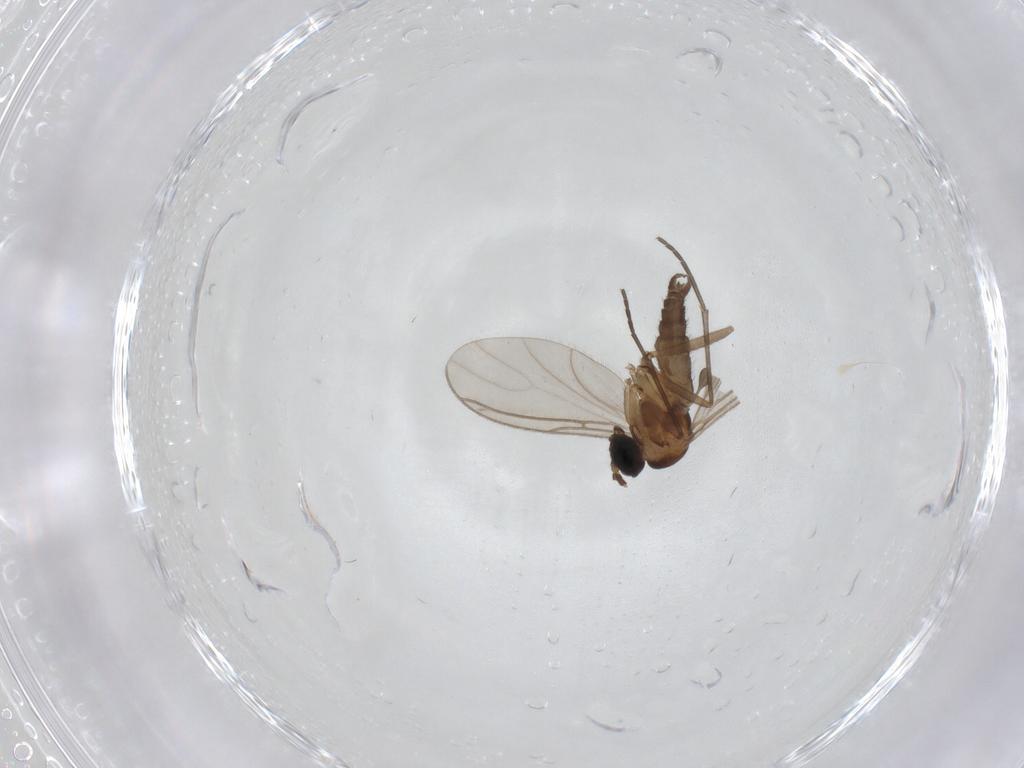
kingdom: Animalia
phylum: Arthropoda
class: Insecta
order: Diptera
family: Sciaridae
